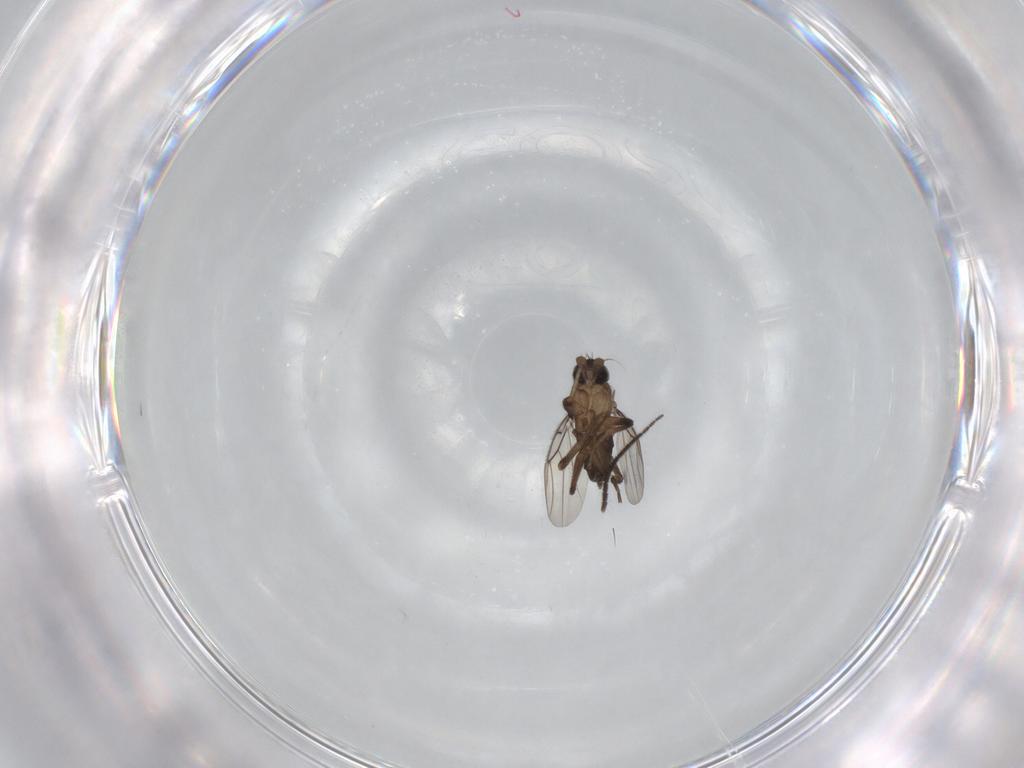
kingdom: Animalia
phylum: Arthropoda
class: Insecta
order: Diptera
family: Phoridae
